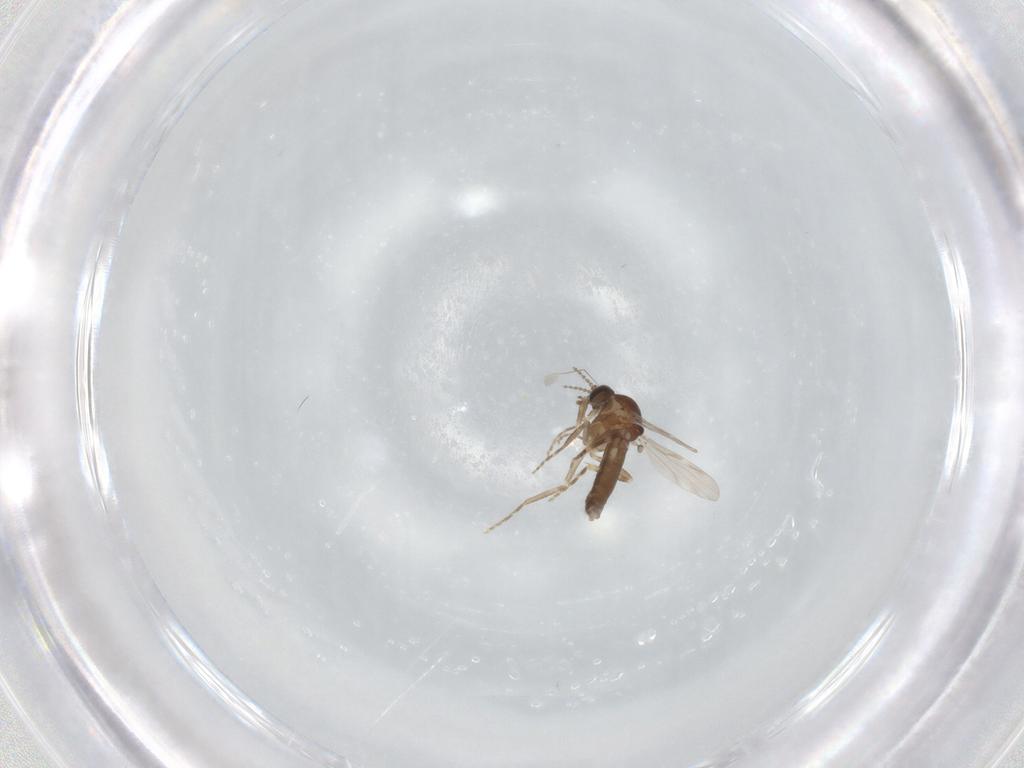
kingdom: Animalia
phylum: Arthropoda
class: Insecta
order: Diptera
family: Ceratopogonidae
